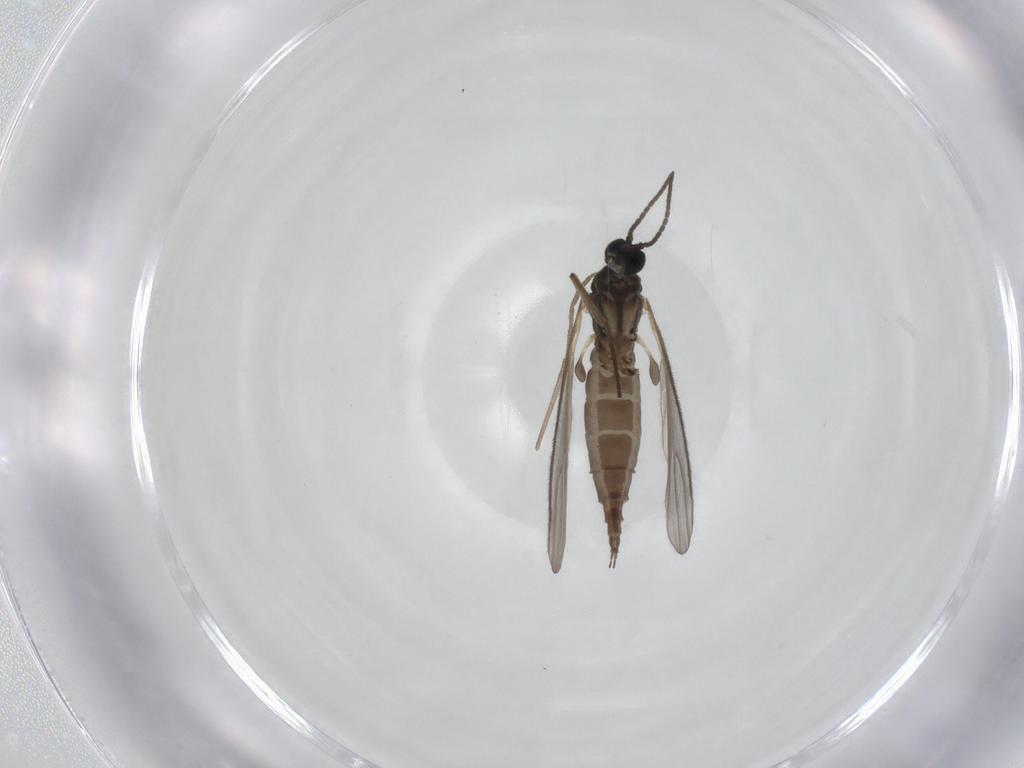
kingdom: Animalia
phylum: Arthropoda
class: Insecta
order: Diptera
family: Sciaridae
